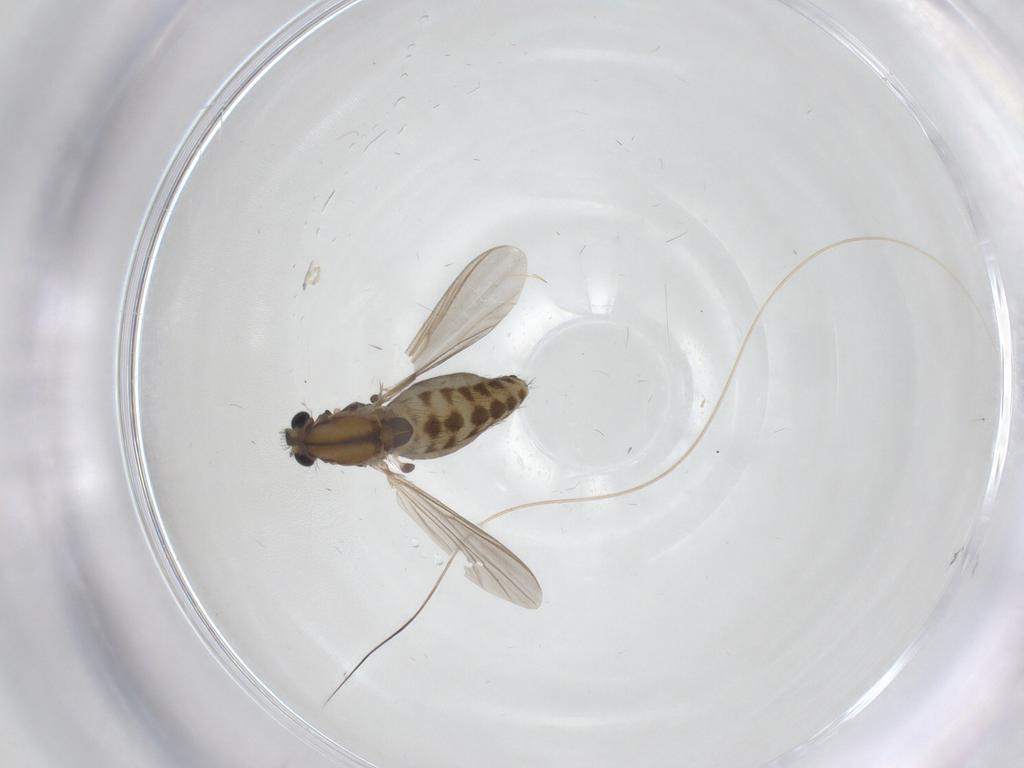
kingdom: Animalia
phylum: Arthropoda
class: Insecta
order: Diptera
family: Chironomidae
